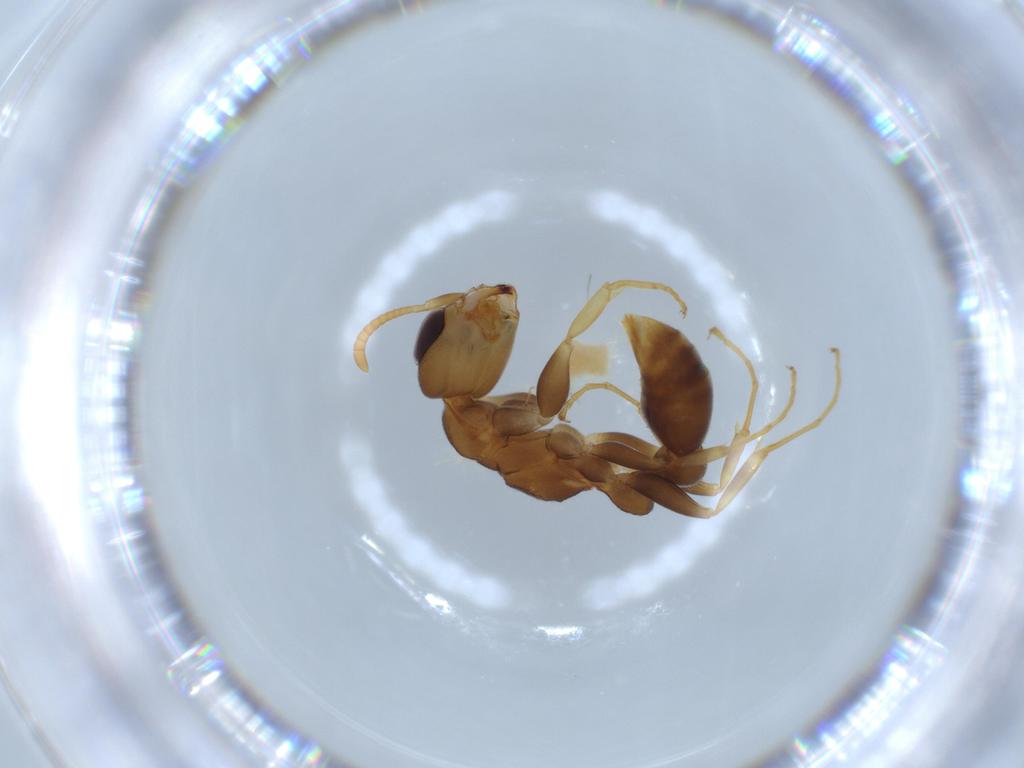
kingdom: Animalia
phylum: Arthropoda
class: Insecta
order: Hymenoptera
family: Formicidae
